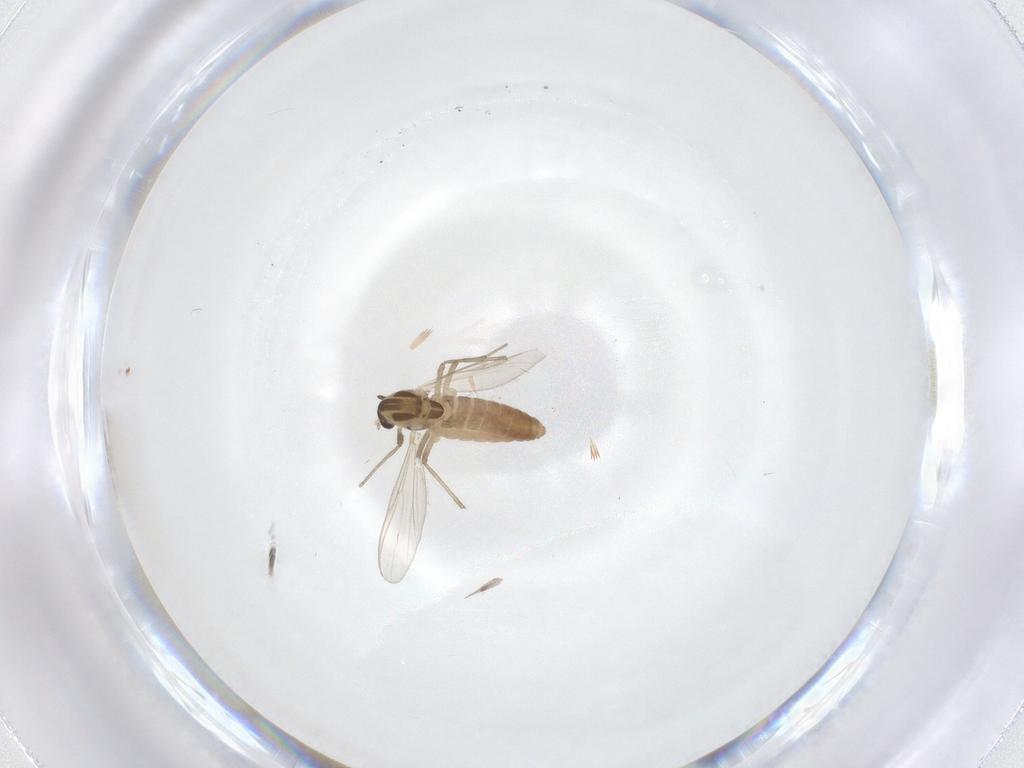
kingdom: Animalia
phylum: Arthropoda
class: Insecta
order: Diptera
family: Chironomidae
